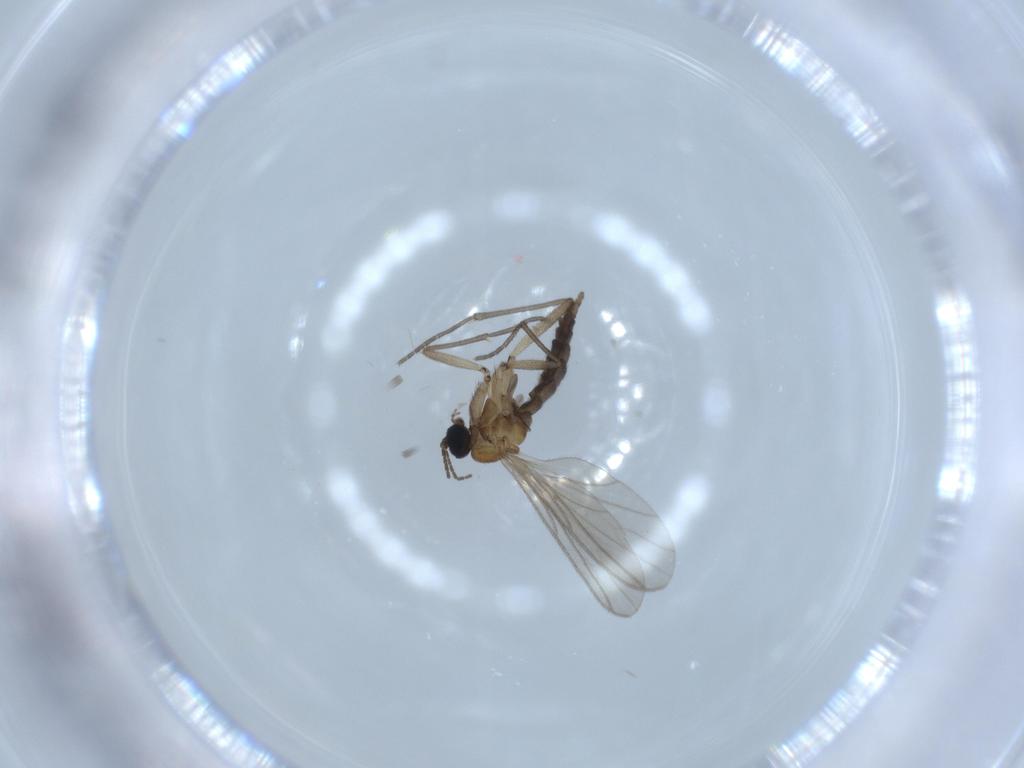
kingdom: Animalia
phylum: Arthropoda
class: Insecta
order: Diptera
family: Sciaridae
